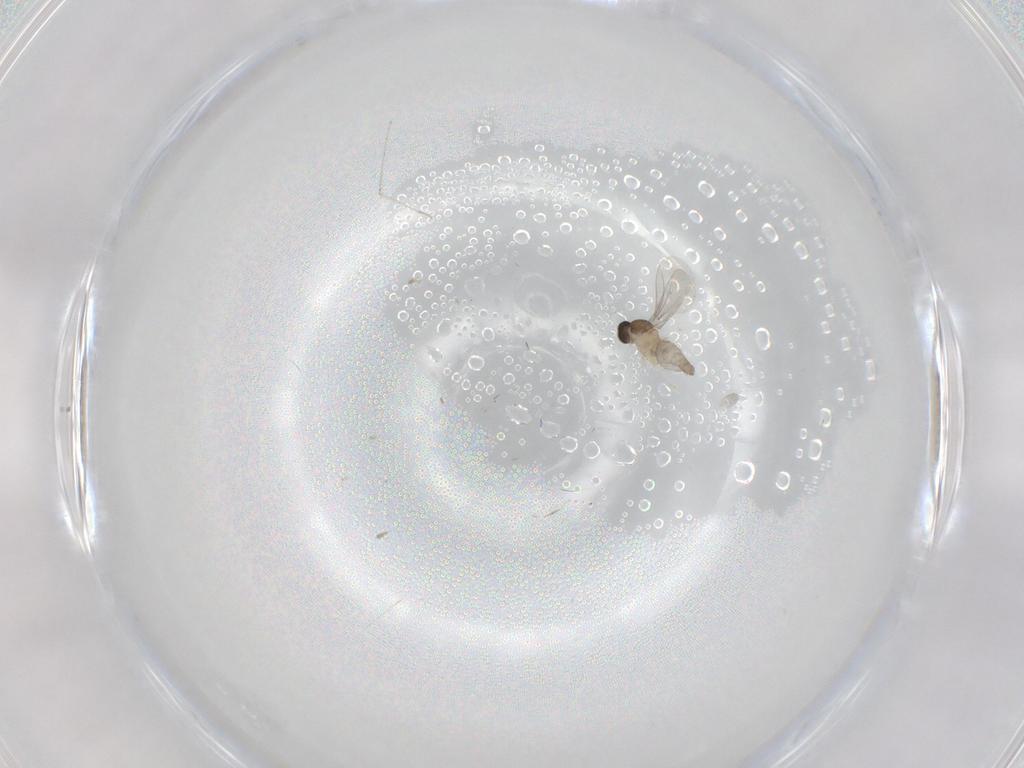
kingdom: Animalia
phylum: Arthropoda
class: Insecta
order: Diptera
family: Cecidomyiidae
